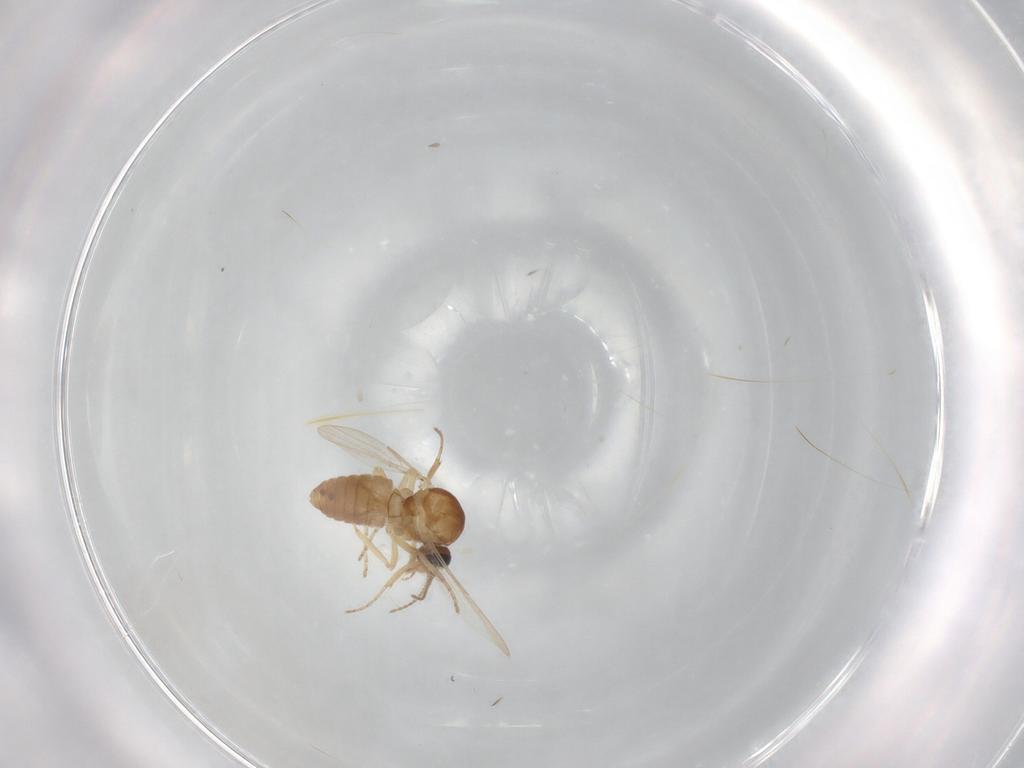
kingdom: Animalia
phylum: Arthropoda
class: Insecta
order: Diptera
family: Ceratopogonidae
